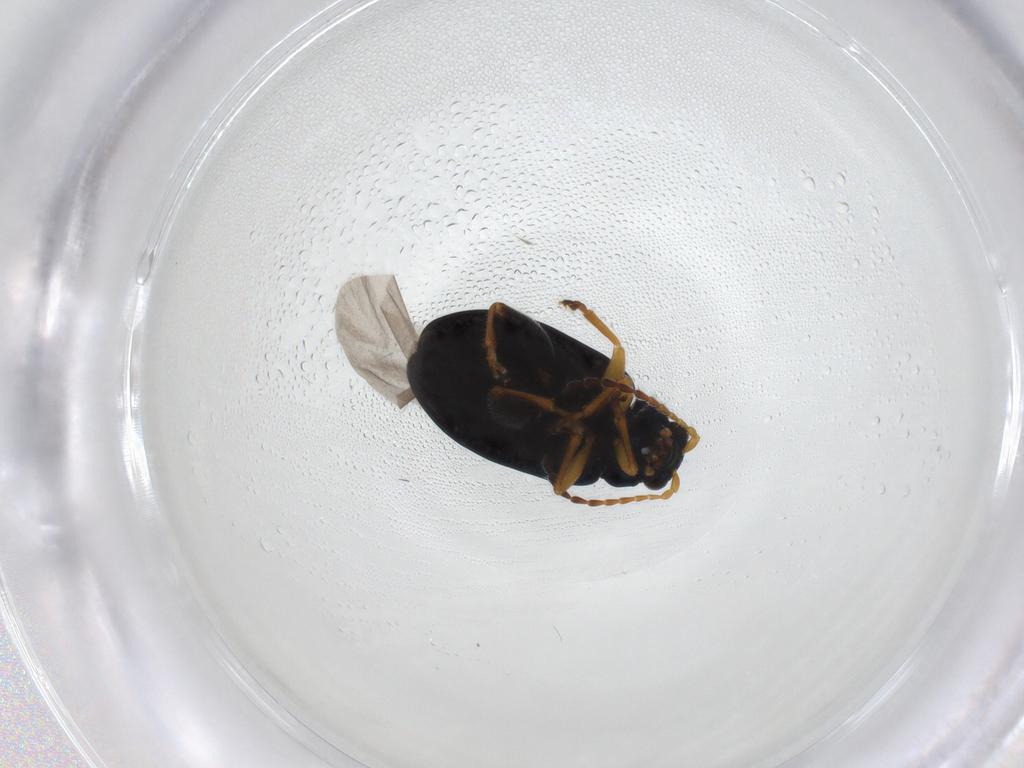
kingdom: Animalia
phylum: Arthropoda
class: Insecta
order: Coleoptera
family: Chrysomelidae
